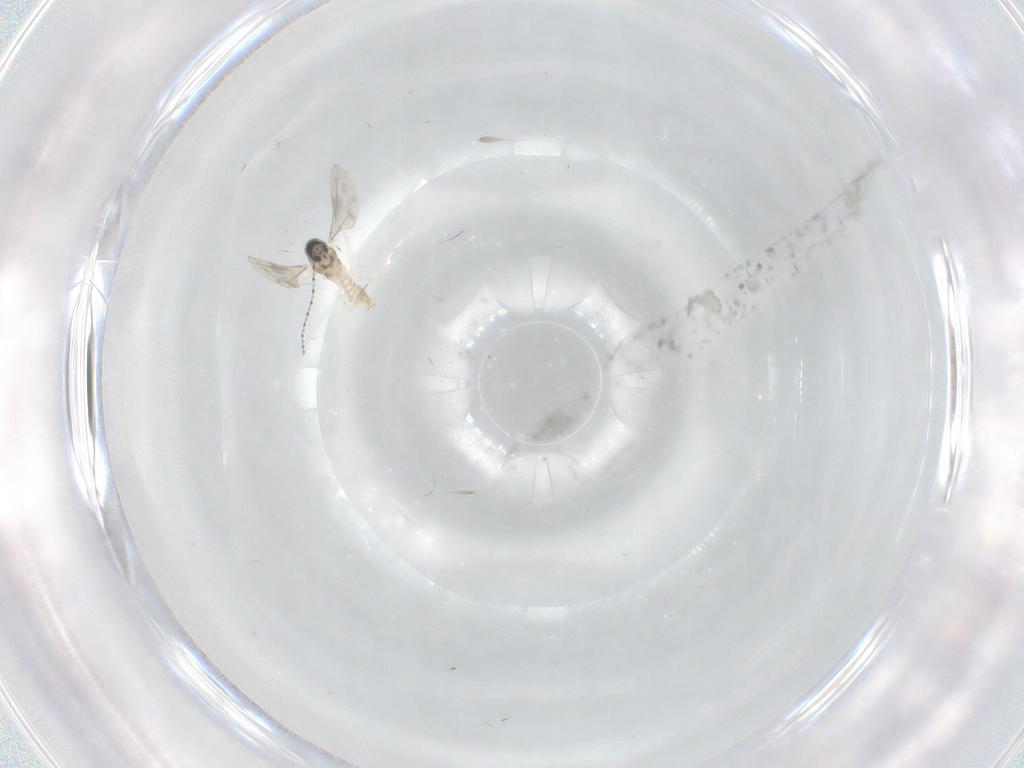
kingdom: Animalia
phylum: Arthropoda
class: Insecta
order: Diptera
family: Cecidomyiidae
